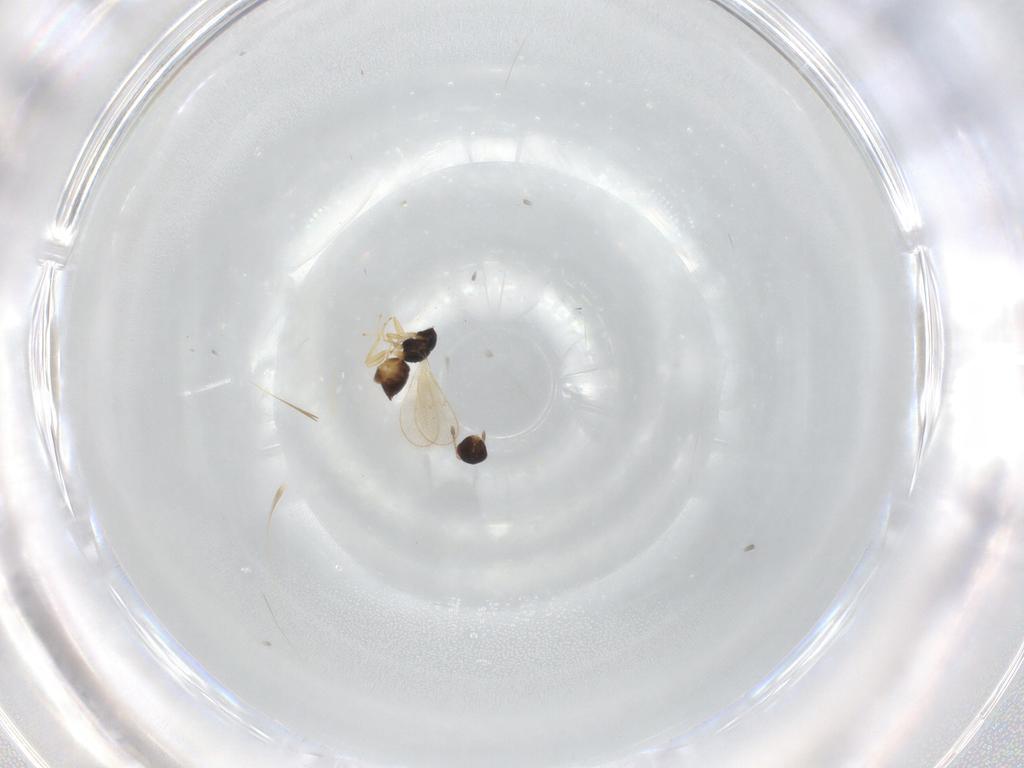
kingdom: Animalia
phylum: Arthropoda
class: Insecta
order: Hymenoptera
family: Tetracampidae
